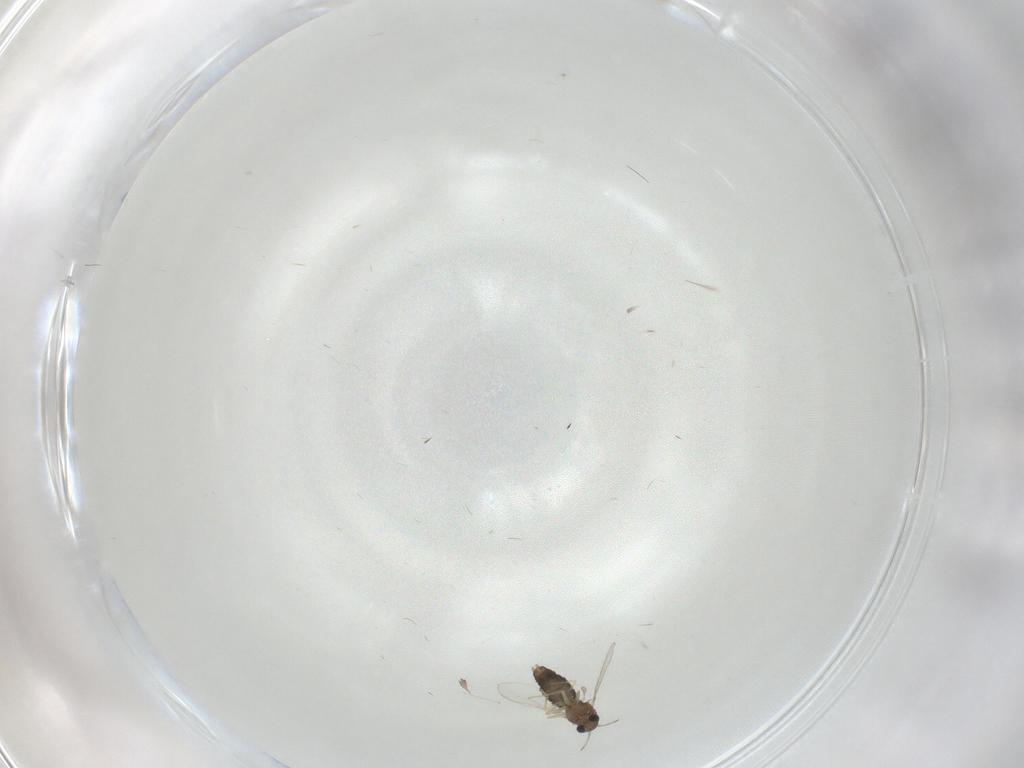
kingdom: Animalia
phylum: Arthropoda
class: Insecta
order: Diptera
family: Chironomidae
